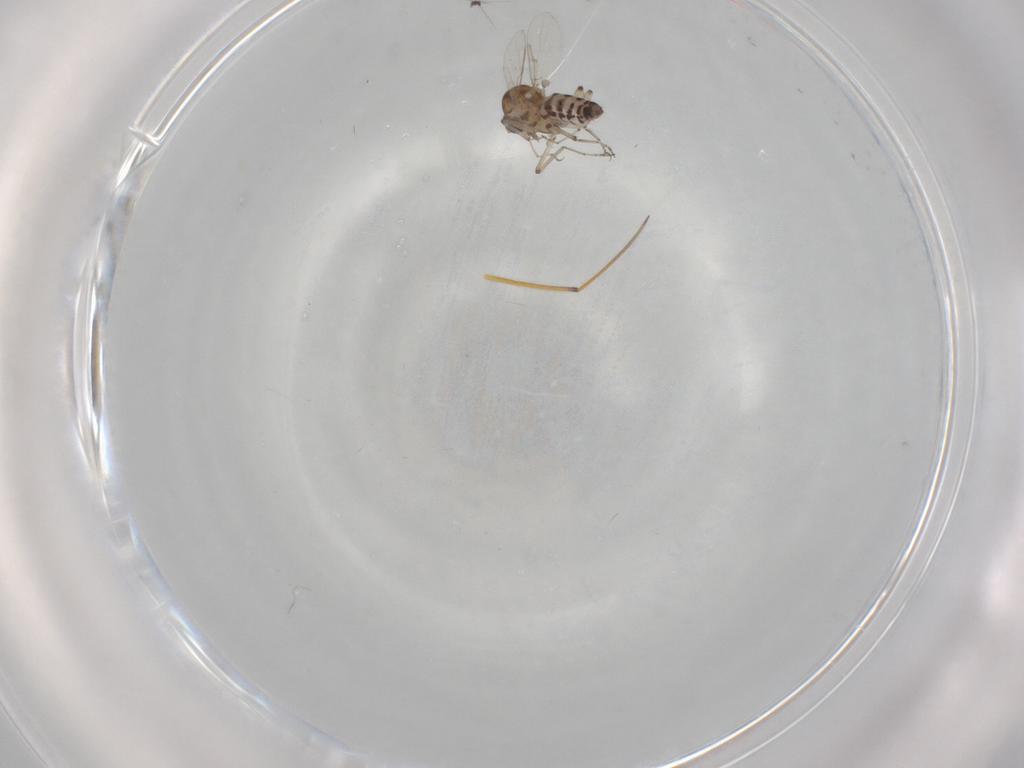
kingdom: Animalia
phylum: Arthropoda
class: Insecta
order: Diptera
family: Ceratopogonidae
